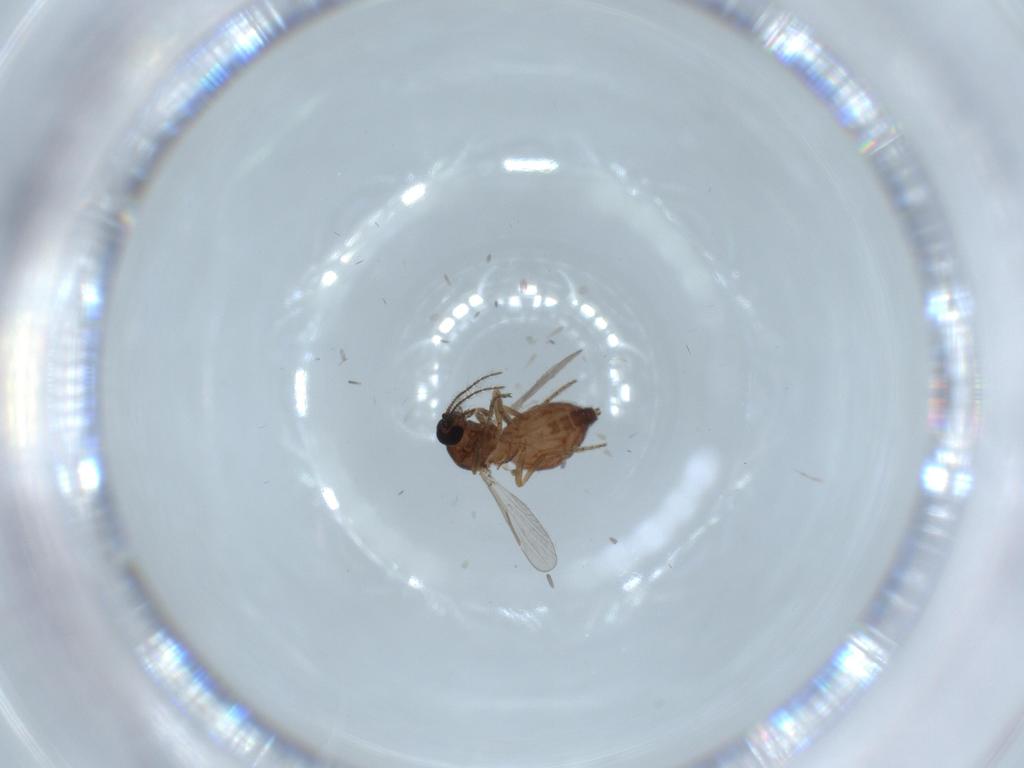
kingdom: Animalia
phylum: Arthropoda
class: Insecta
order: Diptera
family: Ceratopogonidae
